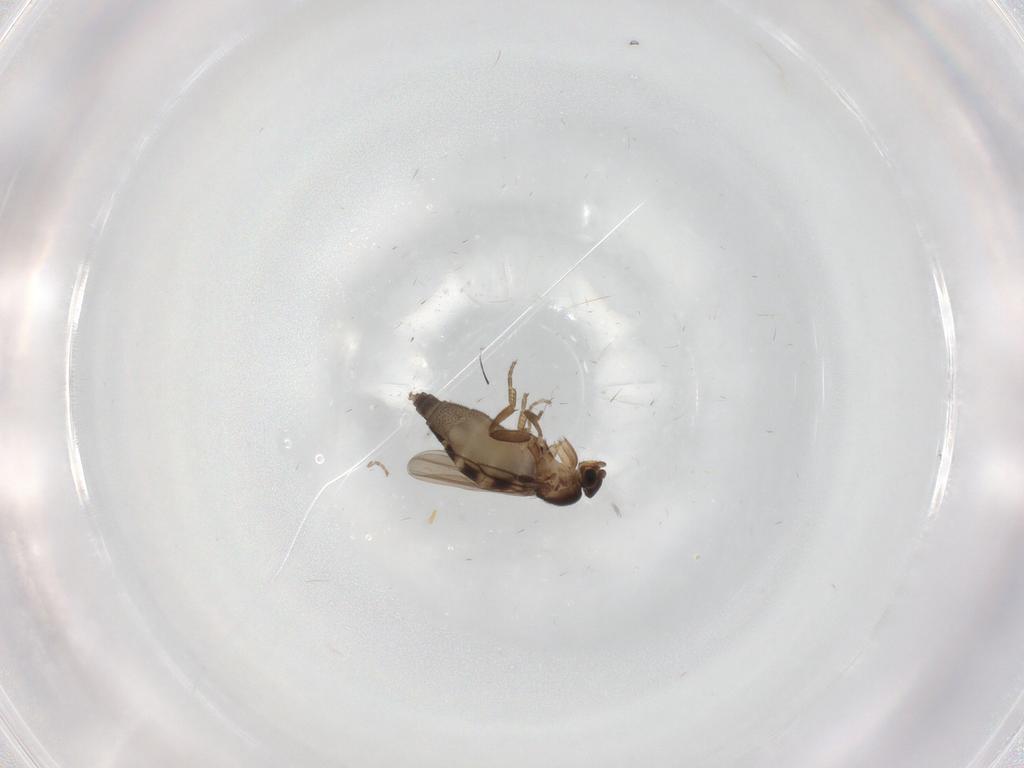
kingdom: Animalia
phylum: Arthropoda
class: Insecta
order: Diptera
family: Phoridae
